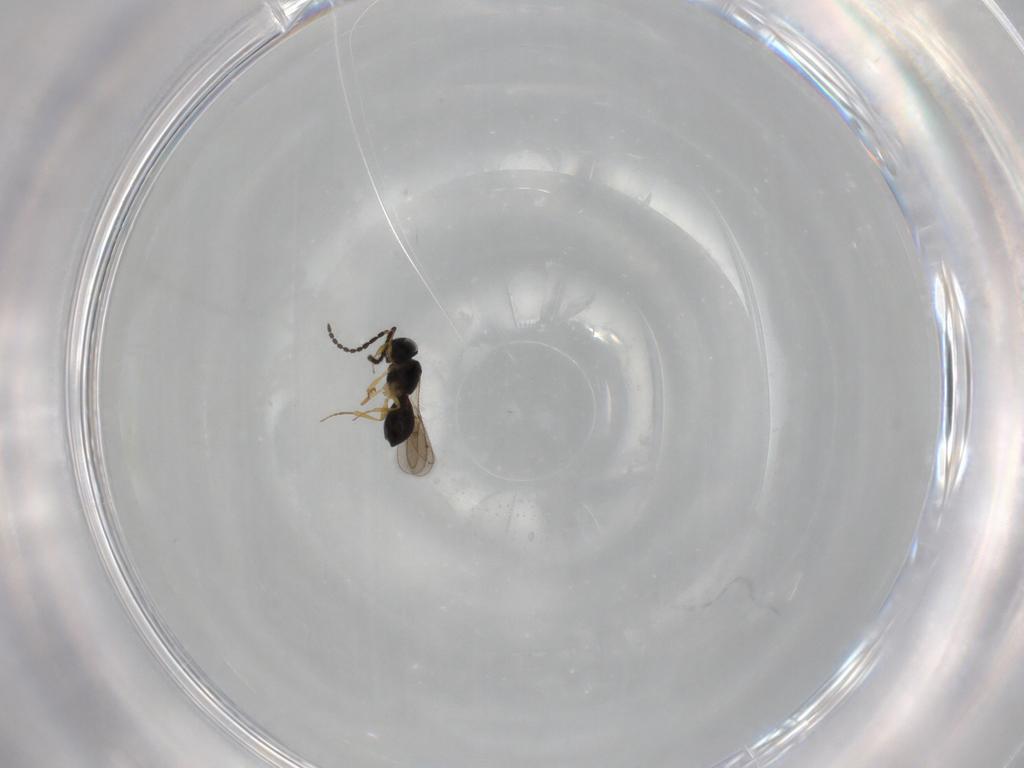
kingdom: Animalia
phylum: Arthropoda
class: Insecta
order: Hymenoptera
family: Scelionidae
